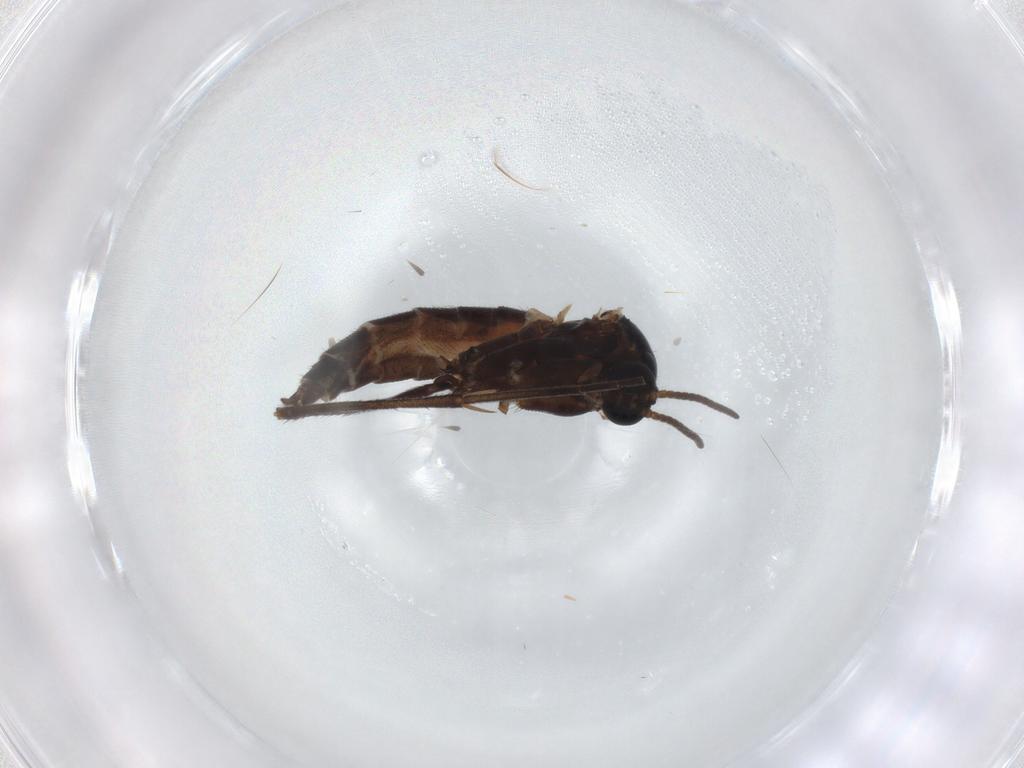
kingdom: Animalia
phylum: Arthropoda
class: Insecta
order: Diptera
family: Sciaridae
